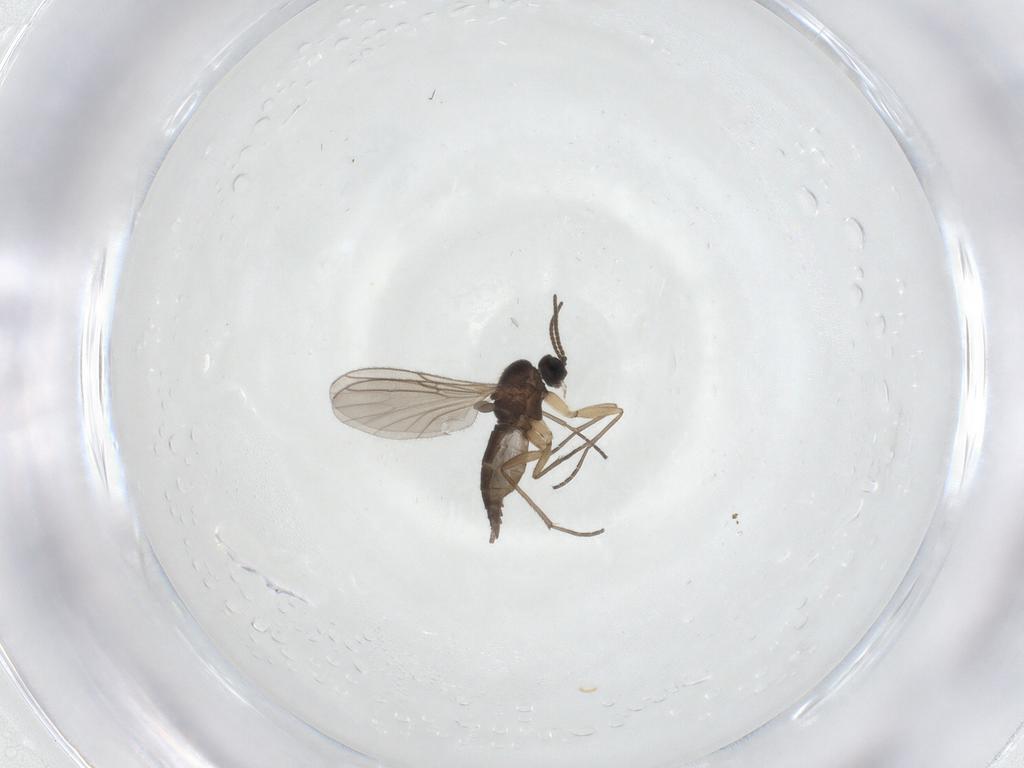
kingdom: Animalia
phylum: Arthropoda
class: Insecta
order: Diptera
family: Sciaridae
